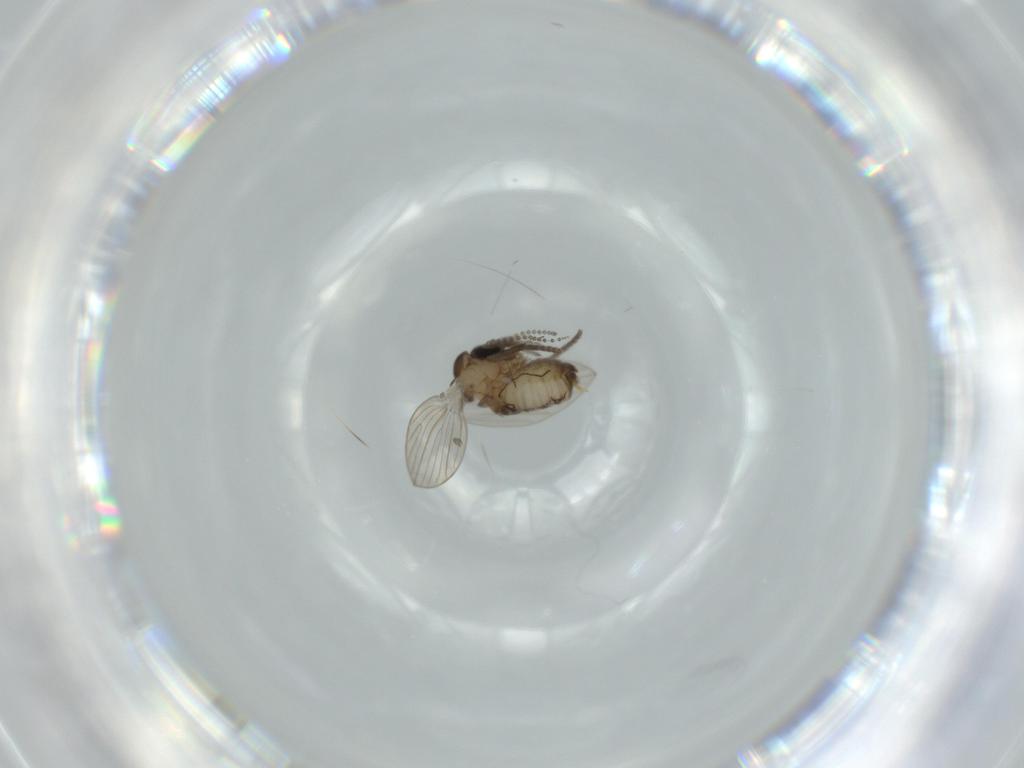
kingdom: Animalia
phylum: Arthropoda
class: Insecta
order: Diptera
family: Psychodidae
